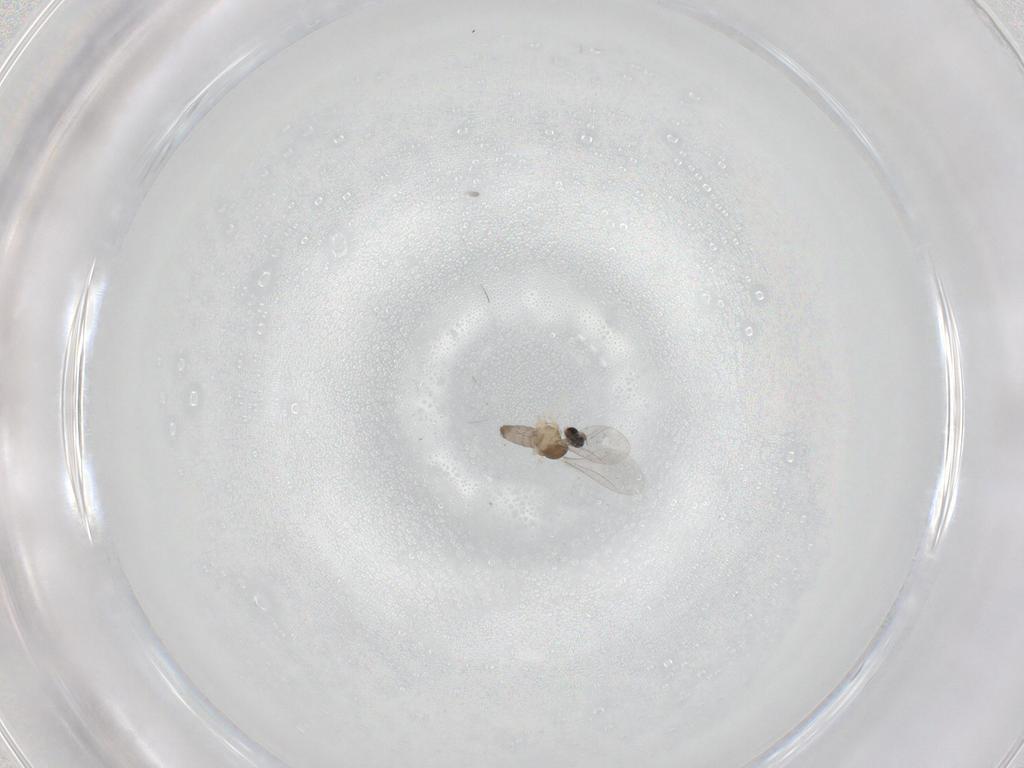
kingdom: Animalia
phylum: Arthropoda
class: Insecta
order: Diptera
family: Cecidomyiidae
